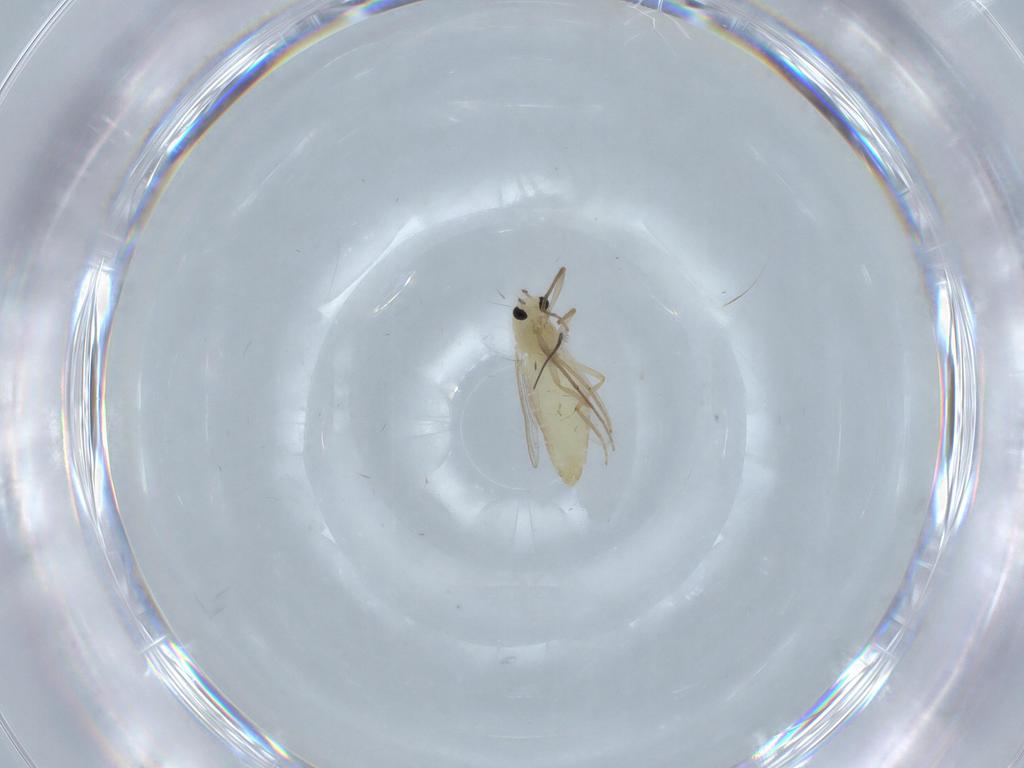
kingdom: Animalia
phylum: Arthropoda
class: Insecta
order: Diptera
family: Chironomidae
